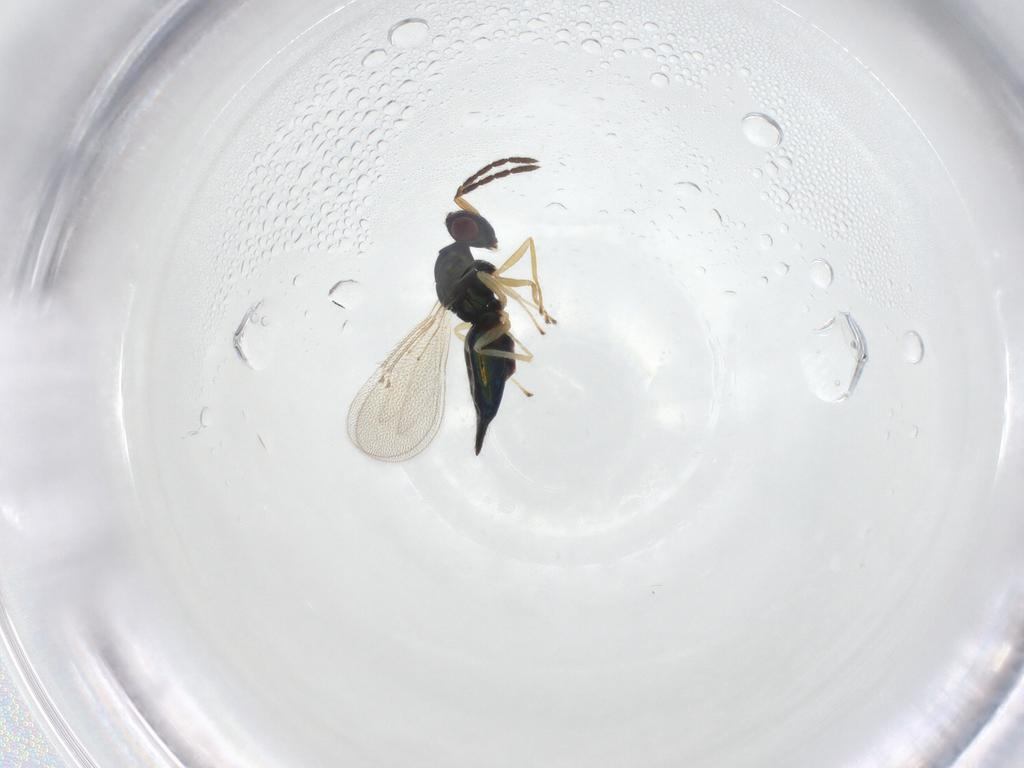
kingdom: Animalia
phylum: Arthropoda
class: Insecta
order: Hymenoptera
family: Eulophidae
